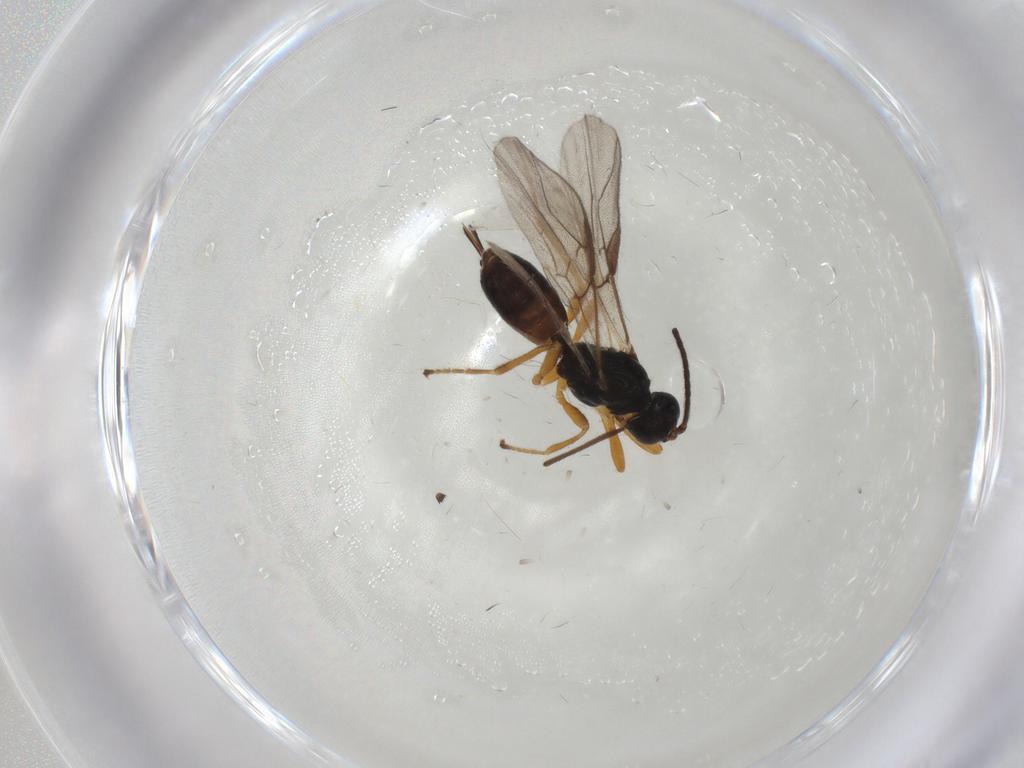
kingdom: Animalia
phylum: Arthropoda
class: Insecta
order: Hymenoptera
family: Braconidae
